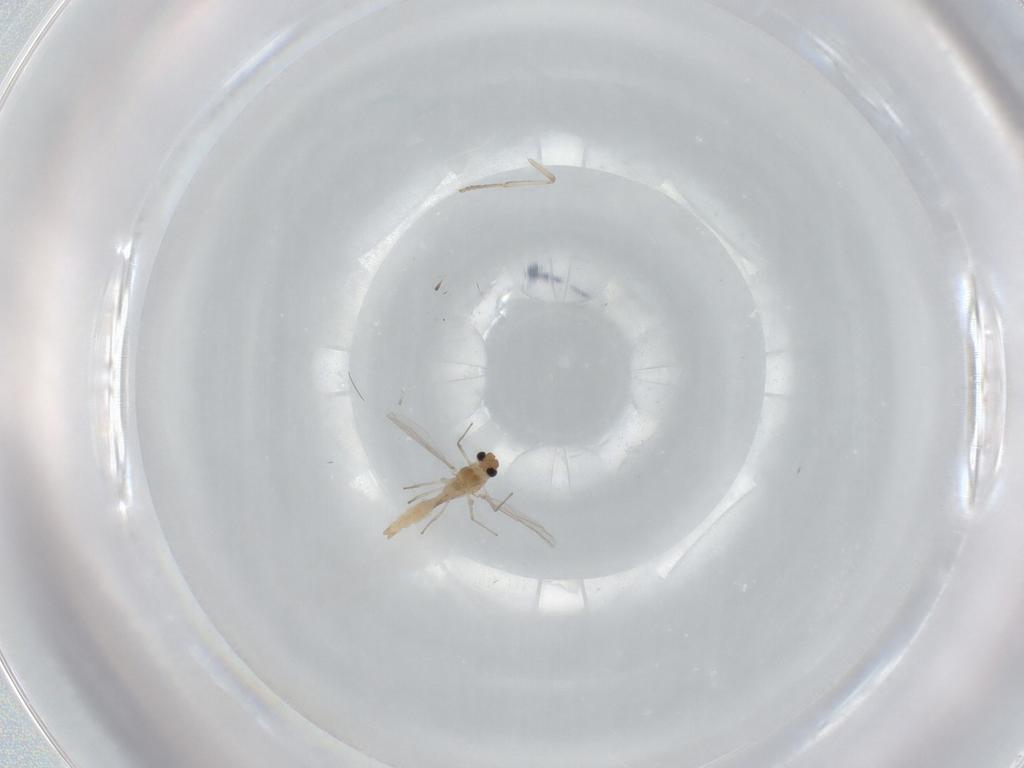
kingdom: Animalia
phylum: Arthropoda
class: Insecta
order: Diptera
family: Chironomidae
